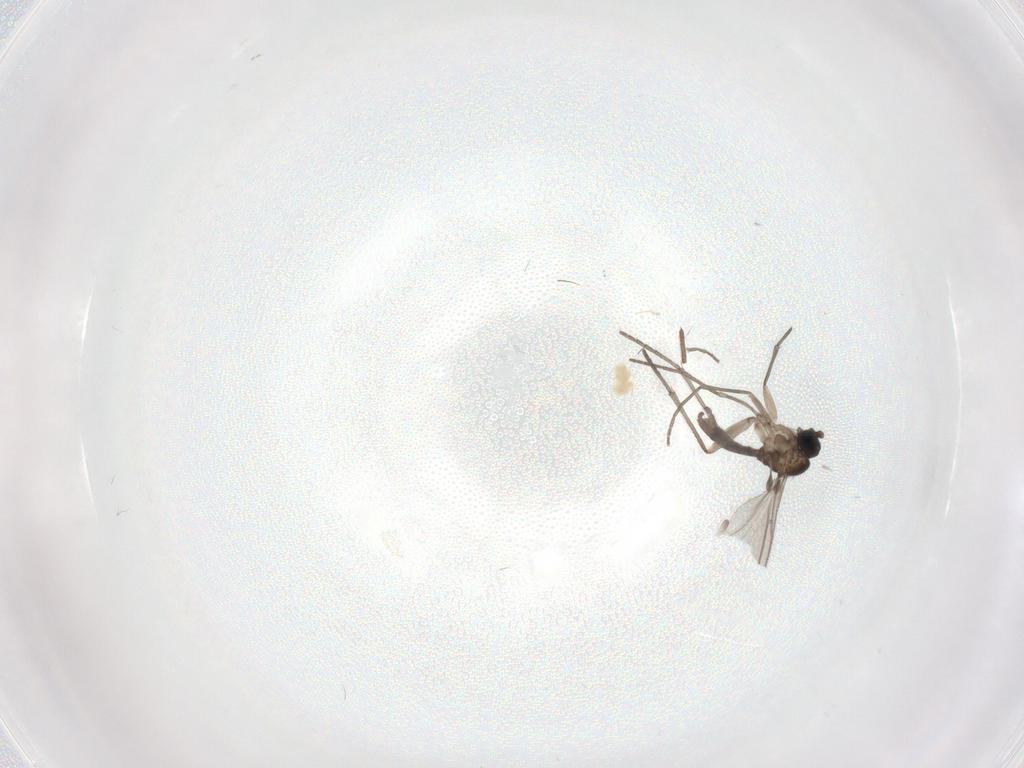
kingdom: Animalia
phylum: Arthropoda
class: Insecta
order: Diptera
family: Sciaridae
